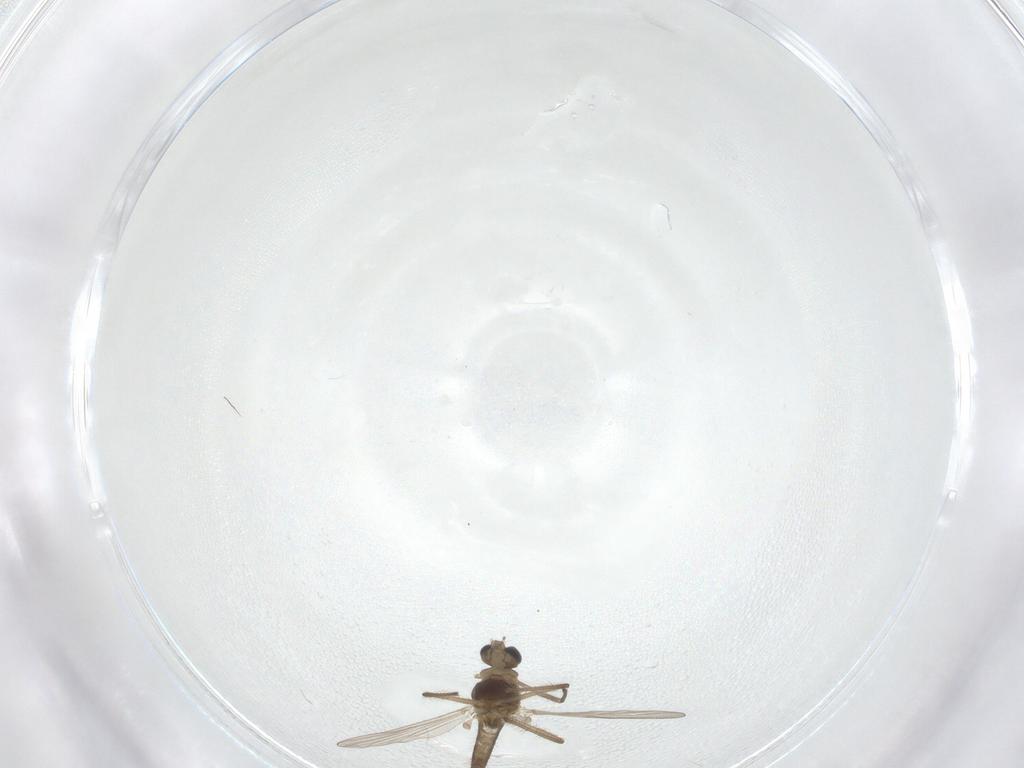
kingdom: Animalia
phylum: Arthropoda
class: Insecta
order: Diptera
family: Chironomidae
